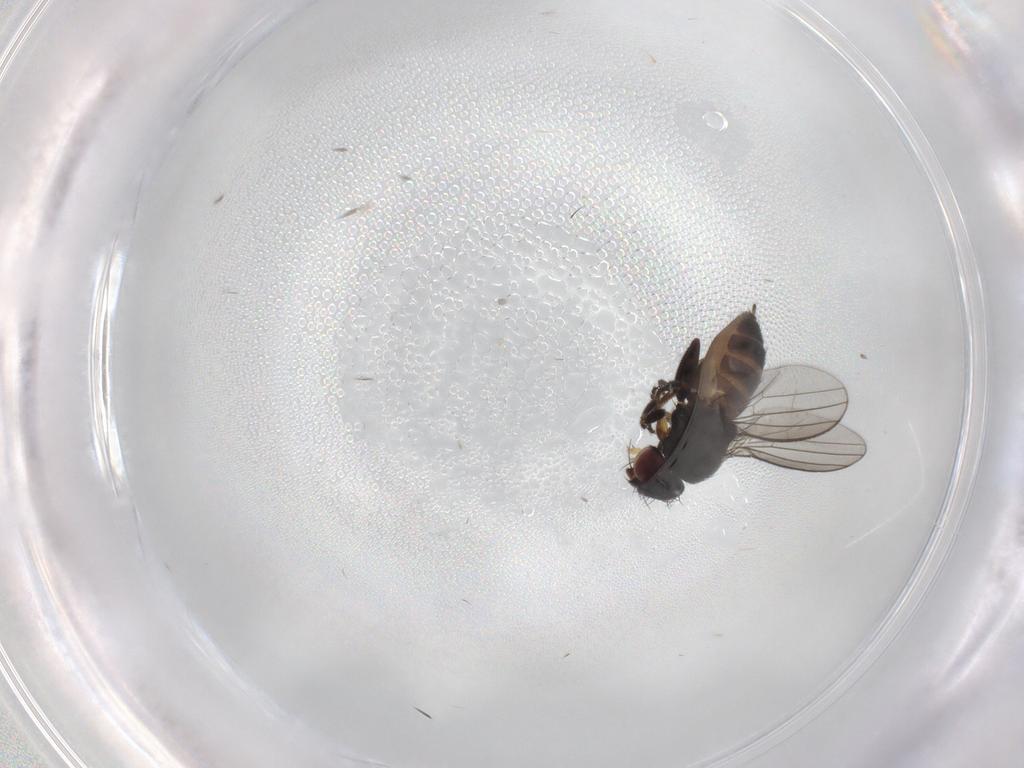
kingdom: Animalia
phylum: Arthropoda
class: Insecta
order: Diptera
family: Milichiidae
